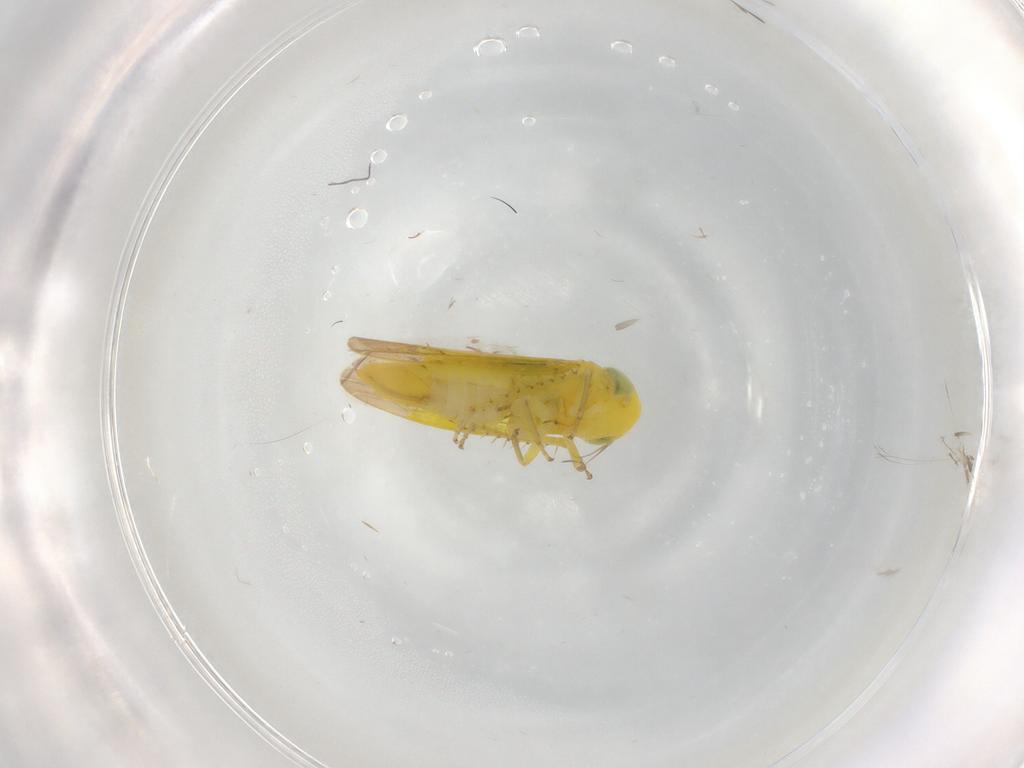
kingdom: Animalia
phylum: Arthropoda
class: Insecta
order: Hemiptera
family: Cicadellidae
